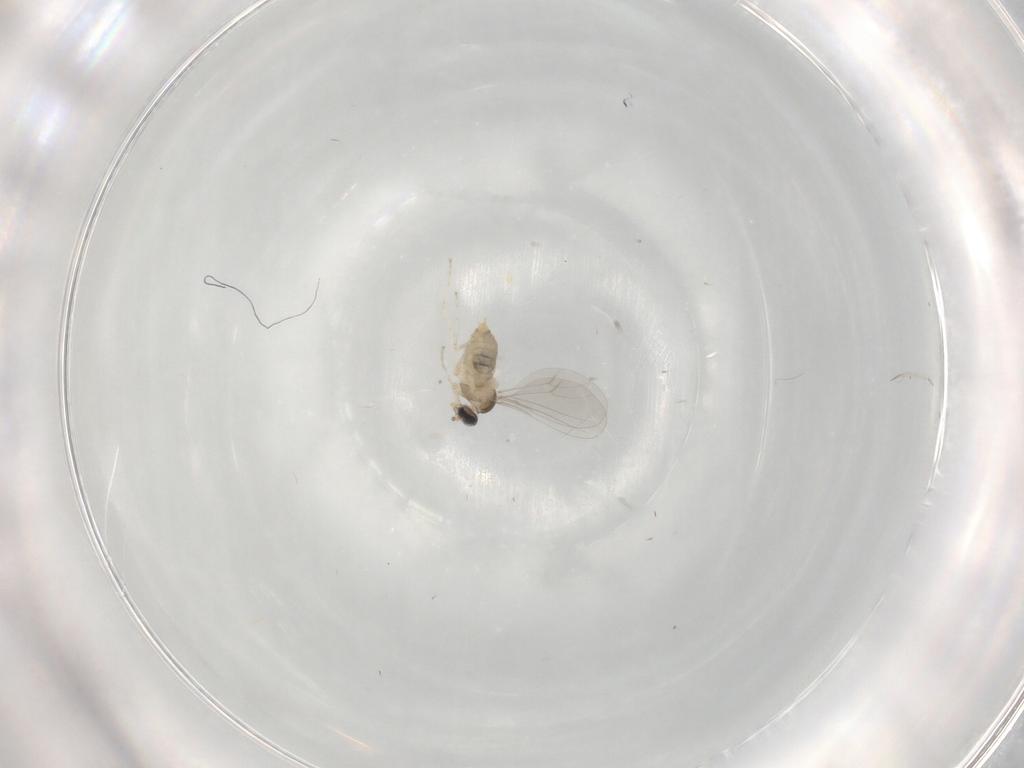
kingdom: Animalia
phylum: Arthropoda
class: Insecta
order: Diptera
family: Cecidomyiidae
